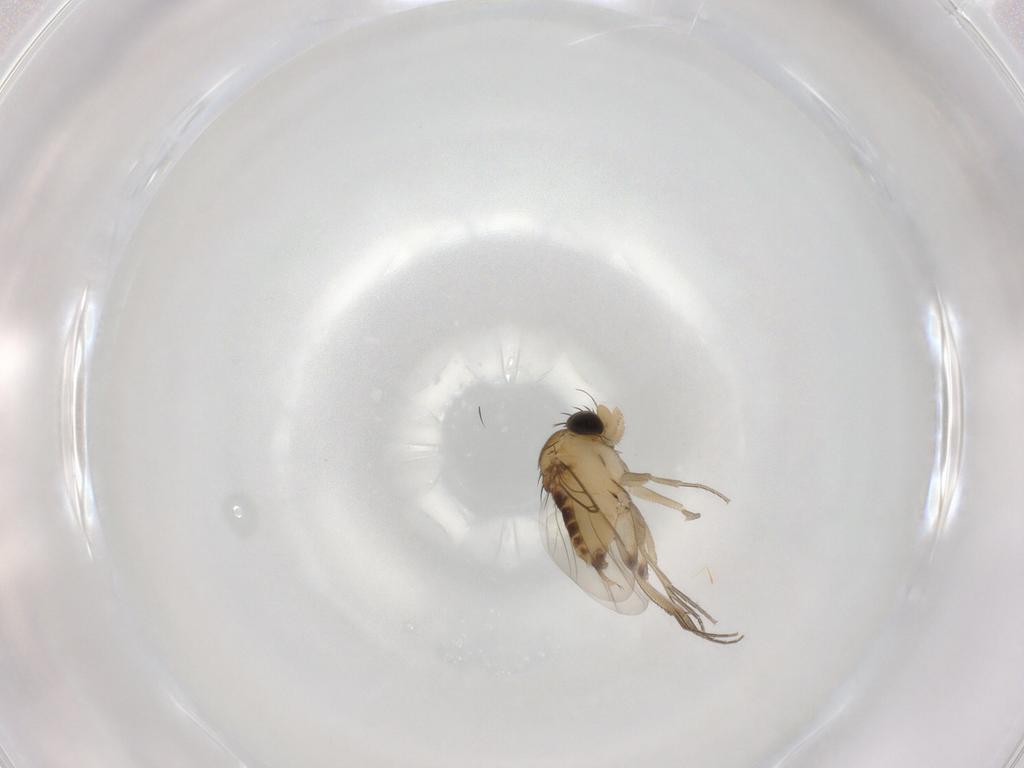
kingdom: Animalia
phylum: Arthropoda
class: Insecta
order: Diptera
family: Phoridae
